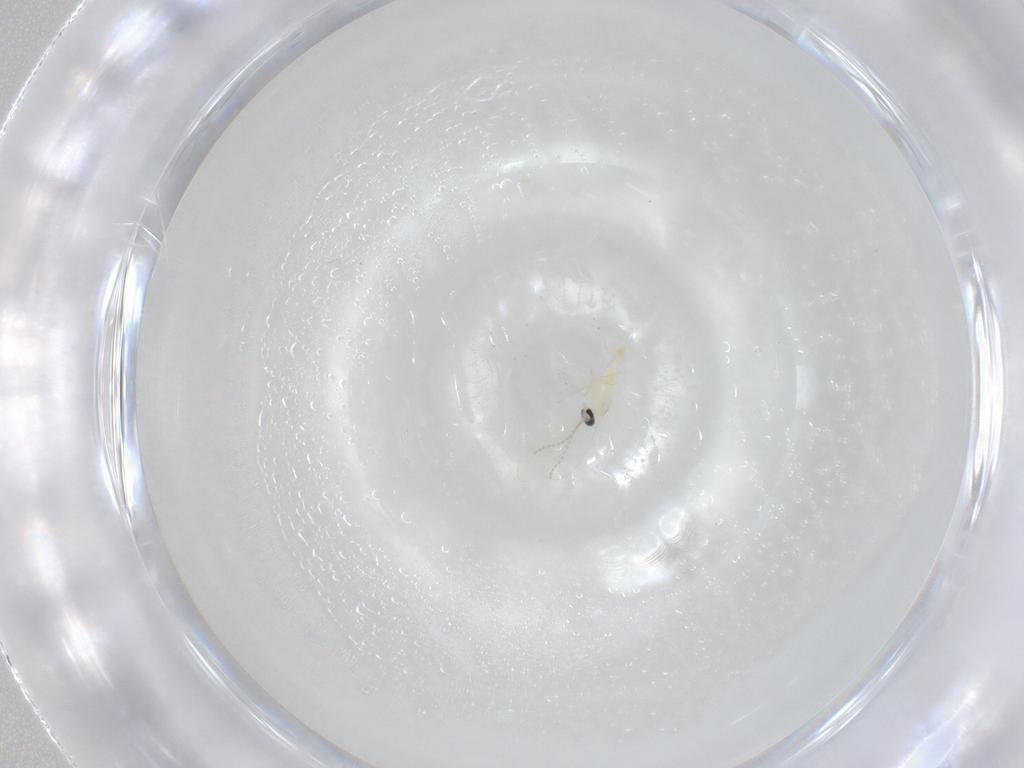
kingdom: Animalia
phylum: Arthropoda
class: Insecta
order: Diptera
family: Cecidomyiidae
